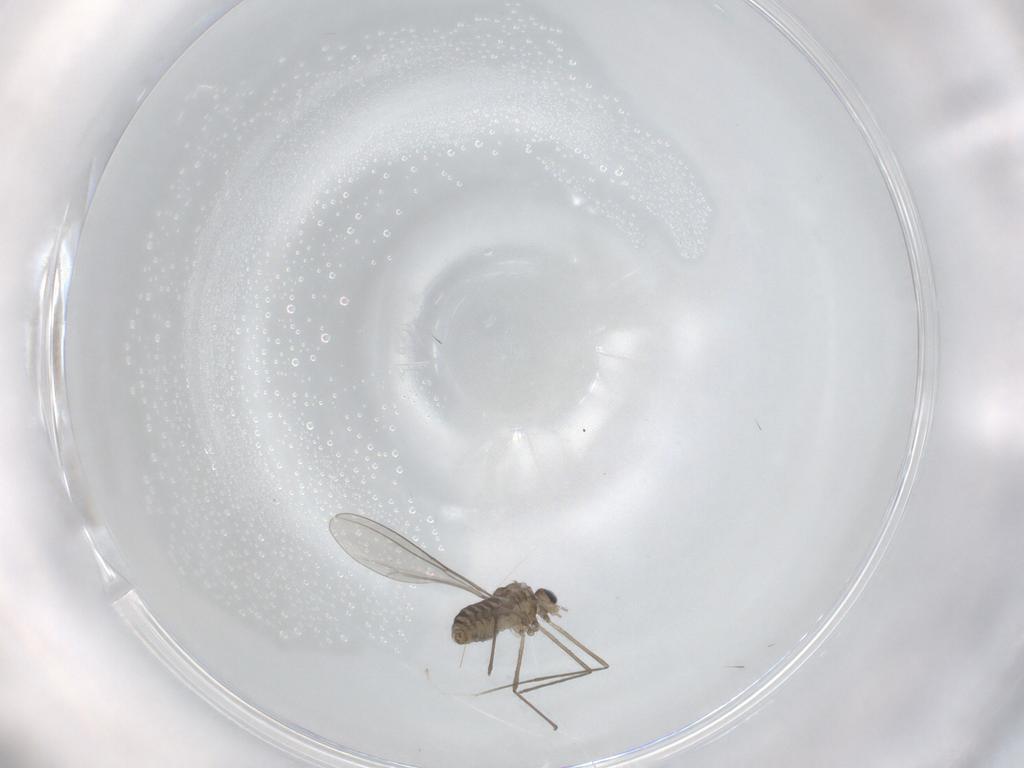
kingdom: Animalia
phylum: Arthropoda
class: Insecta
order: Diptera
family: Cecidomyiidae
